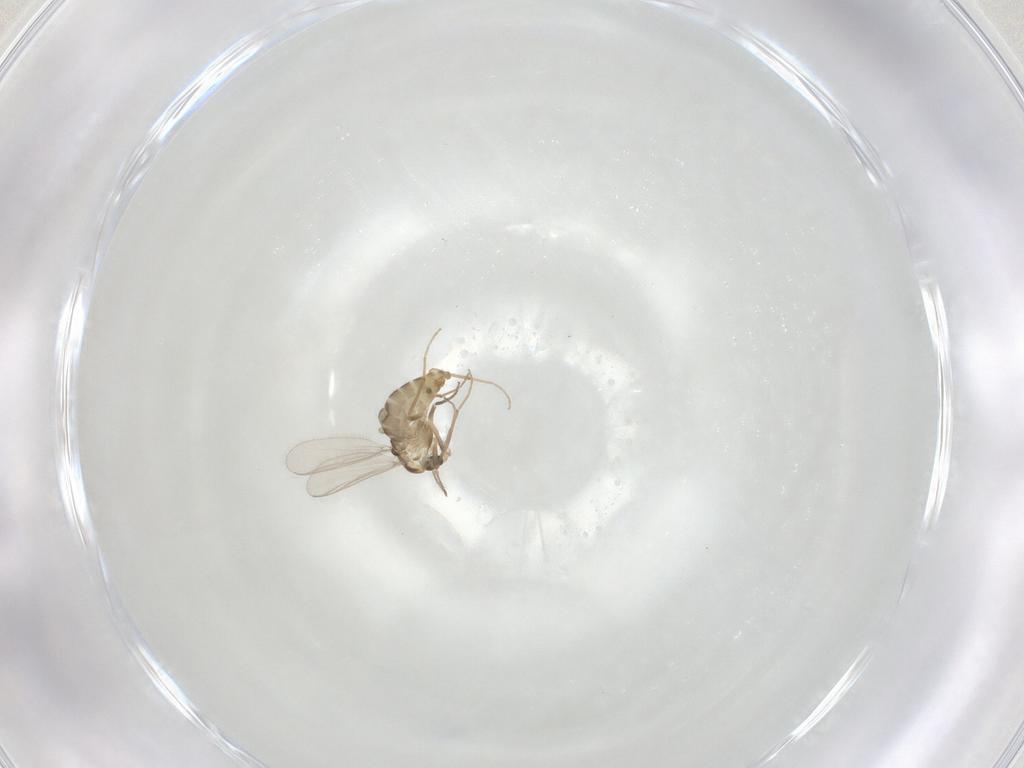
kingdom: Animalia
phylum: Arthropoda
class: Insecta
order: Diptera
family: Chironomidae
